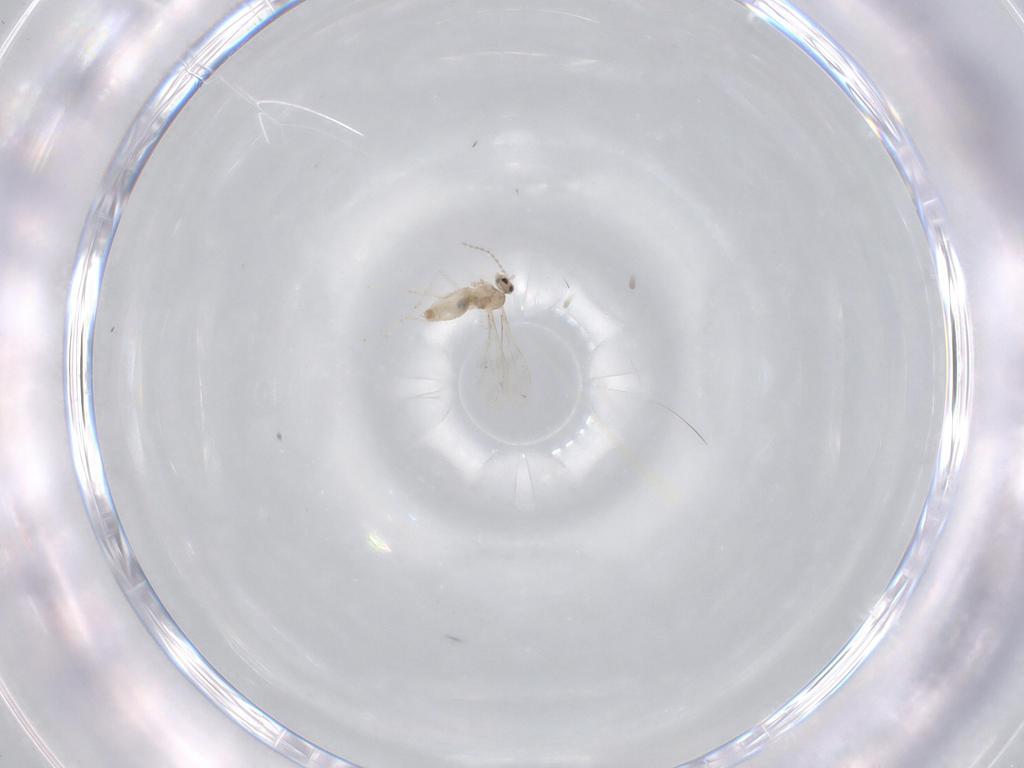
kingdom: Animalia
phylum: Arthropoda
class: Insecta
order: Diptera
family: Cecidomyiidae
